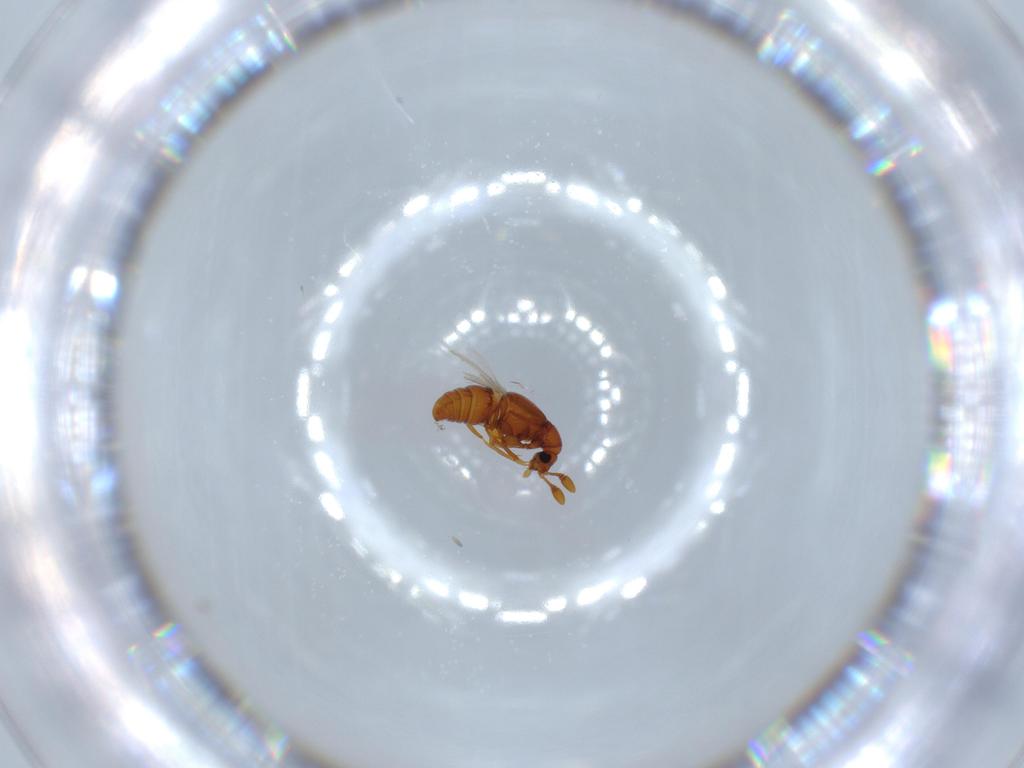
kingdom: Animalia
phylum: Arthropoda
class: Insecta
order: Coleoptera
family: Staphylinidae
